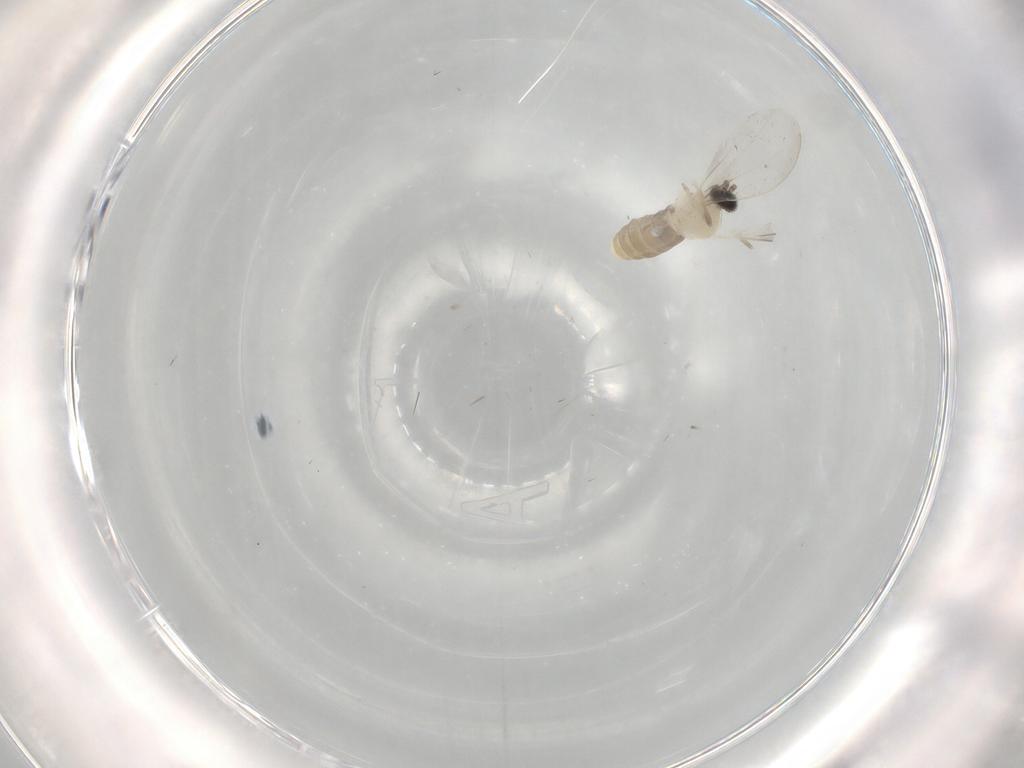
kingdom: Animalia
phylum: Arthropoda
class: Insecta
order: Diptera
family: Cecidomyiidae
